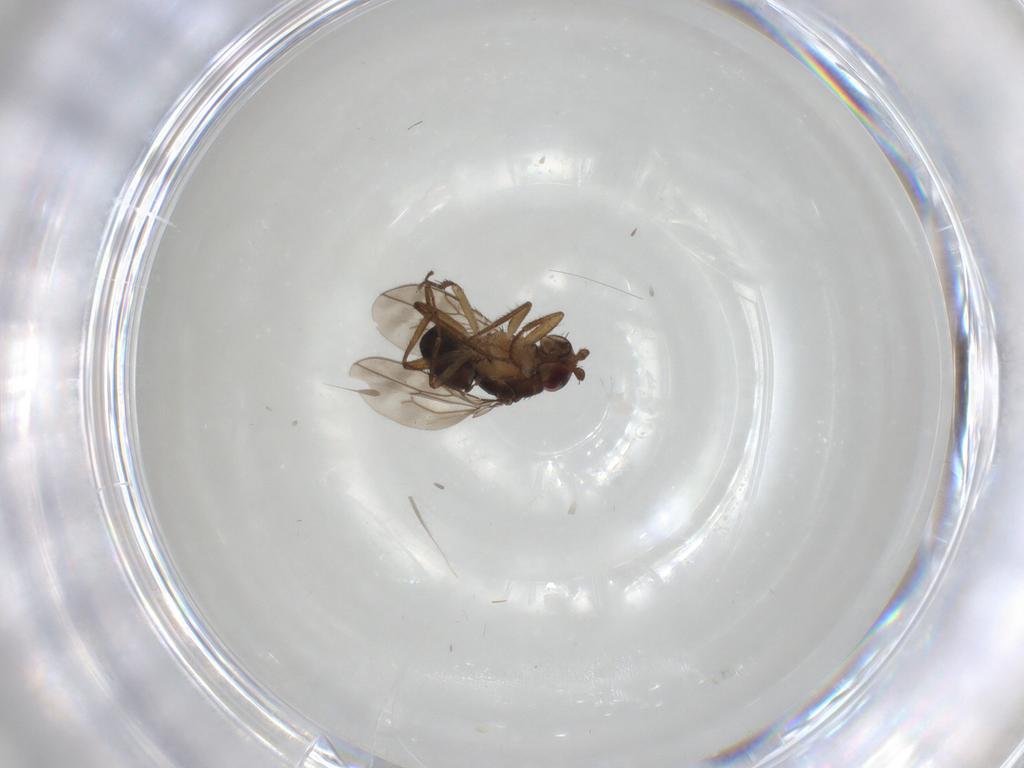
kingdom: Animalia
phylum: Arthropoda
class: Insecta
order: Diptera
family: Sphaeroceridae
